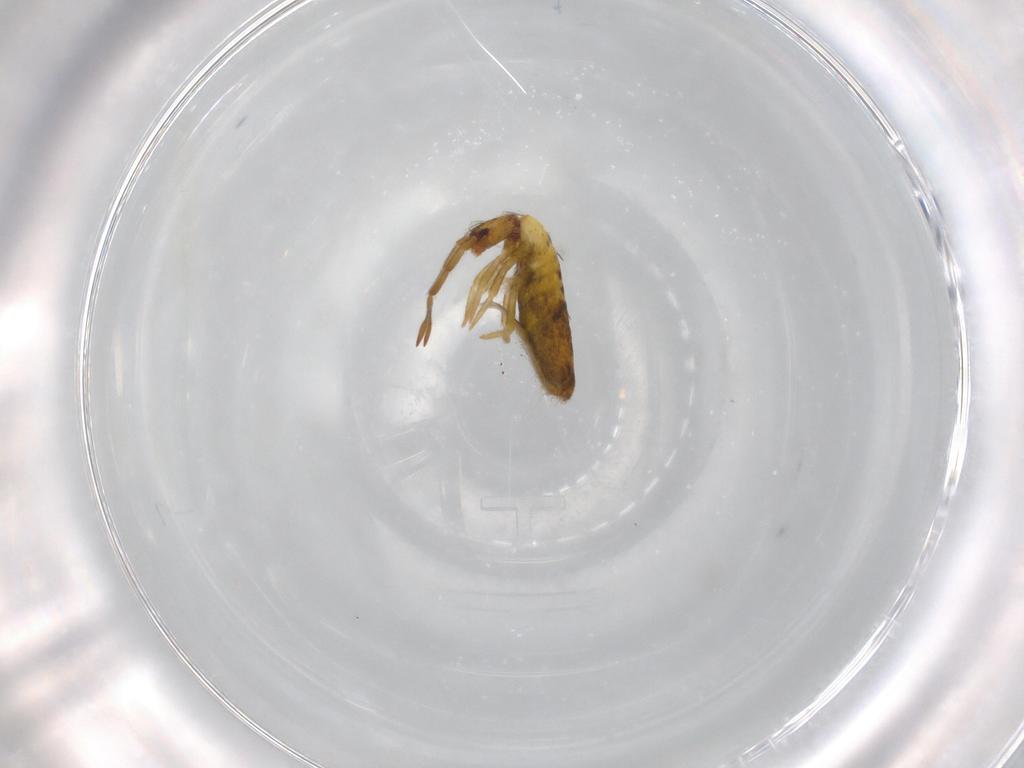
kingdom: Animalia
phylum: Arthropoda
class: Collembola
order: Entomobryomorpha
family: Entomobryidae
